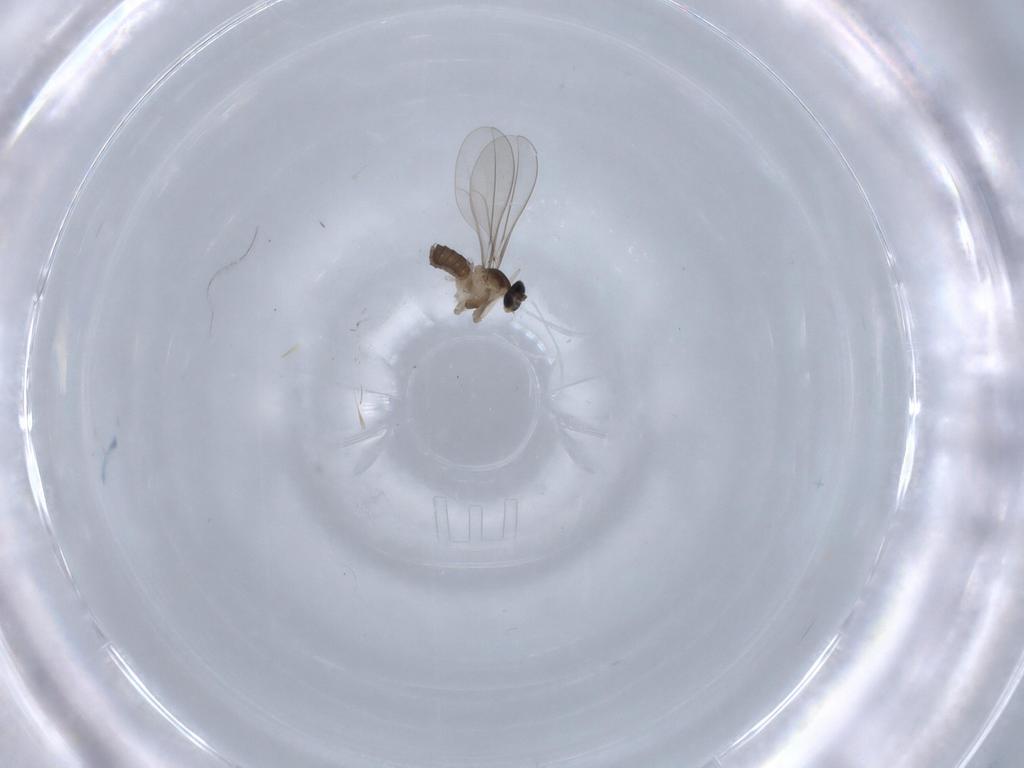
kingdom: Animalia
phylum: Arthropoda
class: Insecta
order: Diptera
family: Cecidomyiidae
